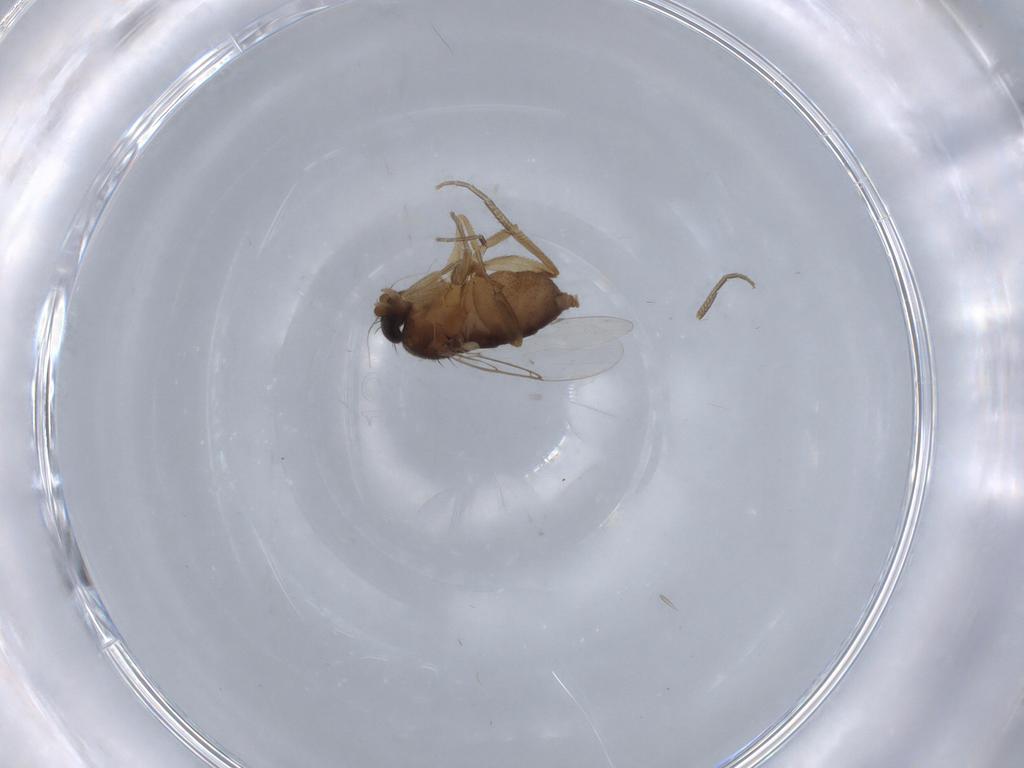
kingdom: Animalia
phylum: Arthropoda
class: Insecta
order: Diptera
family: Phoridae
